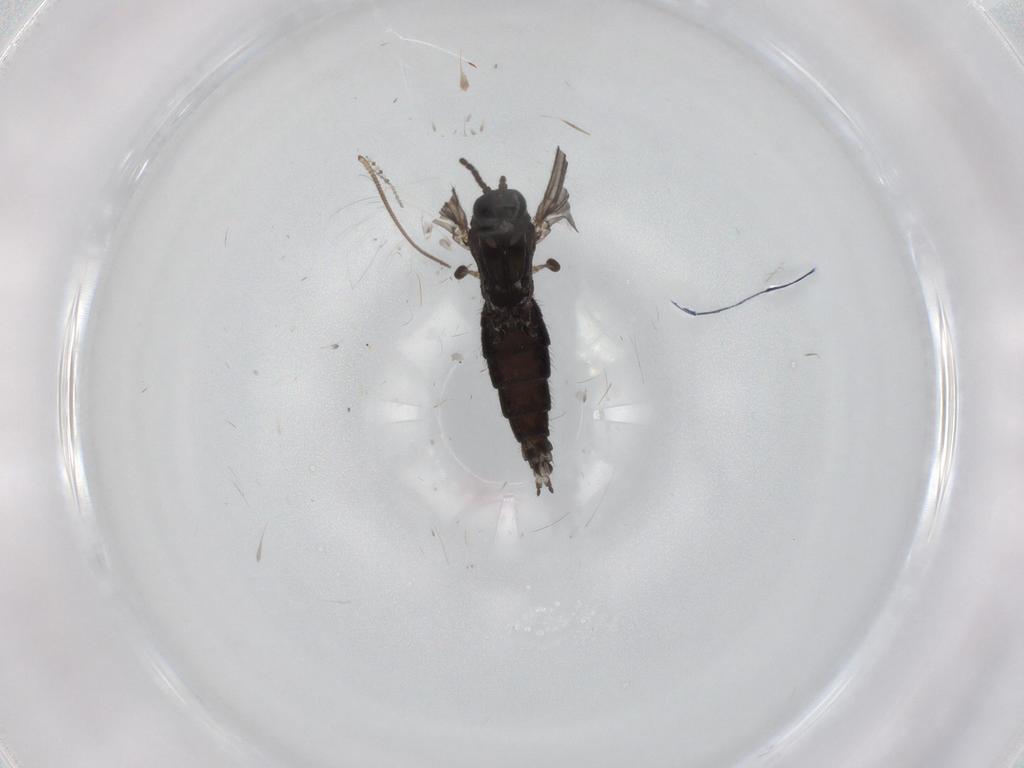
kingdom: Animalia
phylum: Arthropoda
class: Insecta
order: Diptera
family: Sciaridae
